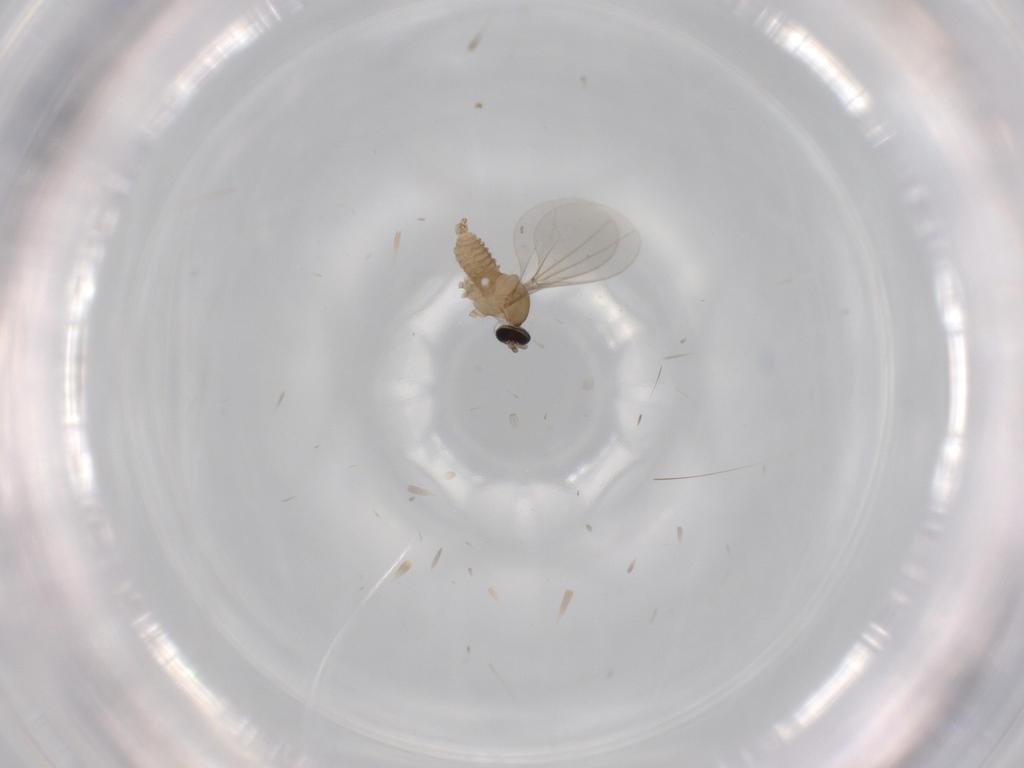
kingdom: Animalia
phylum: Arthropoda
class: Insecta
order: Diptera
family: Cecidomyiidae
